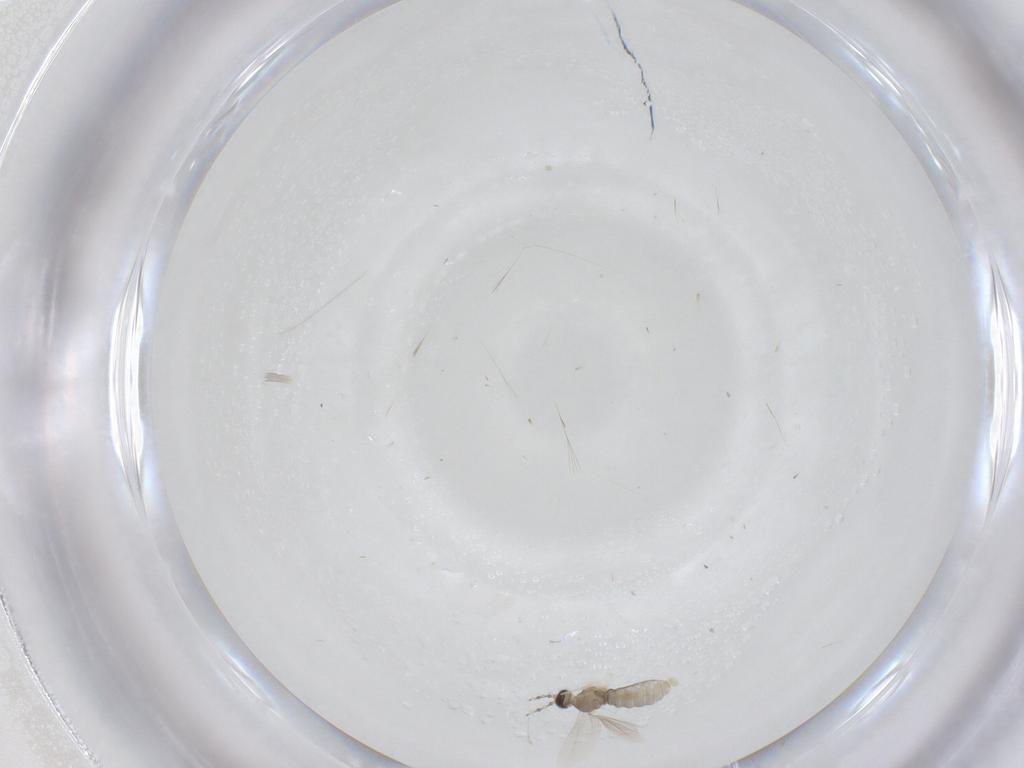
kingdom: Animalia
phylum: Arthropoda
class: Insecta
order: Diptera
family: Cecidomyiidae
